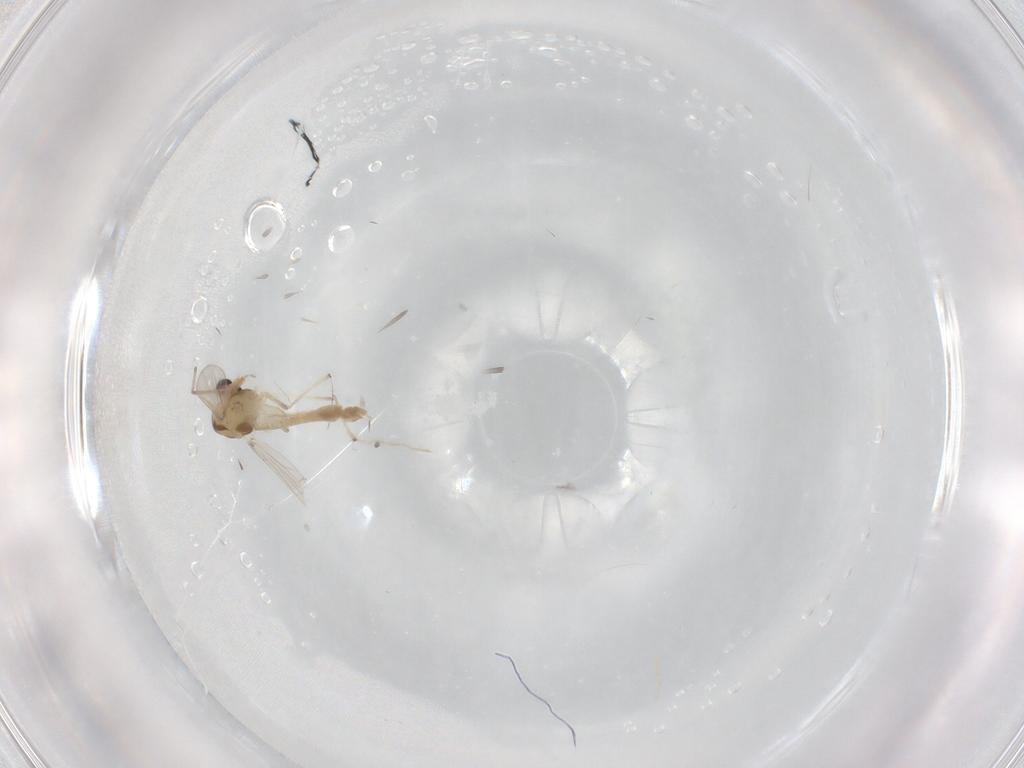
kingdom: Animalia
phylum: Arthropoda
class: Insecta
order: Diptera
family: Chironomidae
